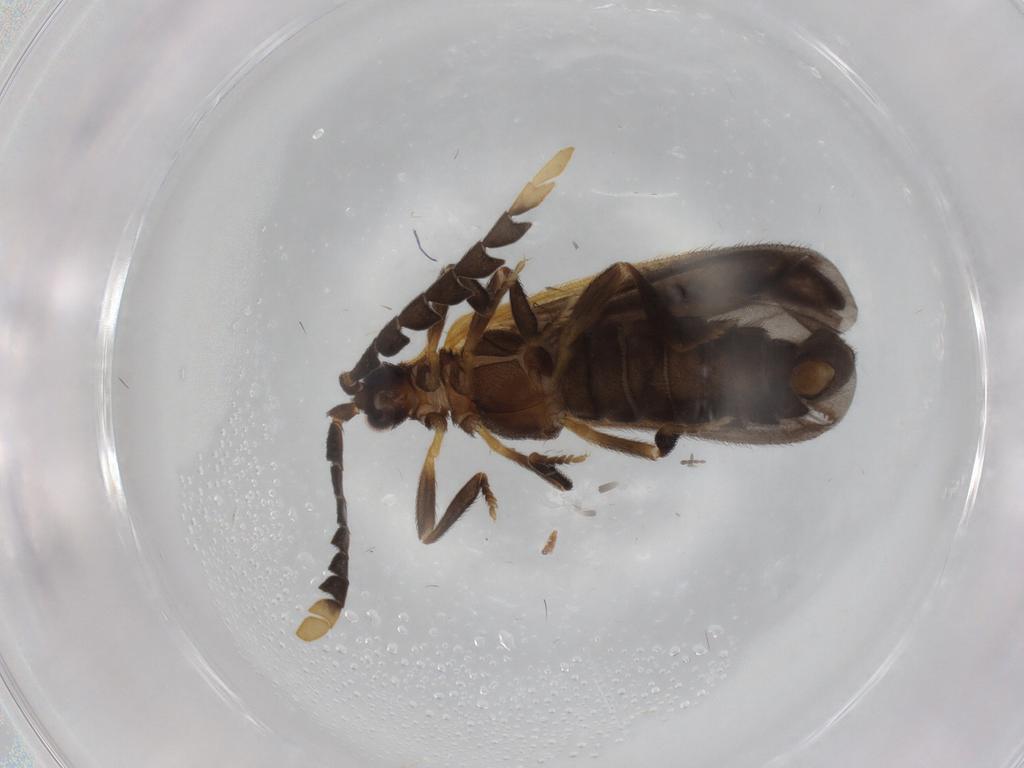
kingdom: Animalia
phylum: Arthropoda
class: Insecta
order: Coleoptera
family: Lycidae
